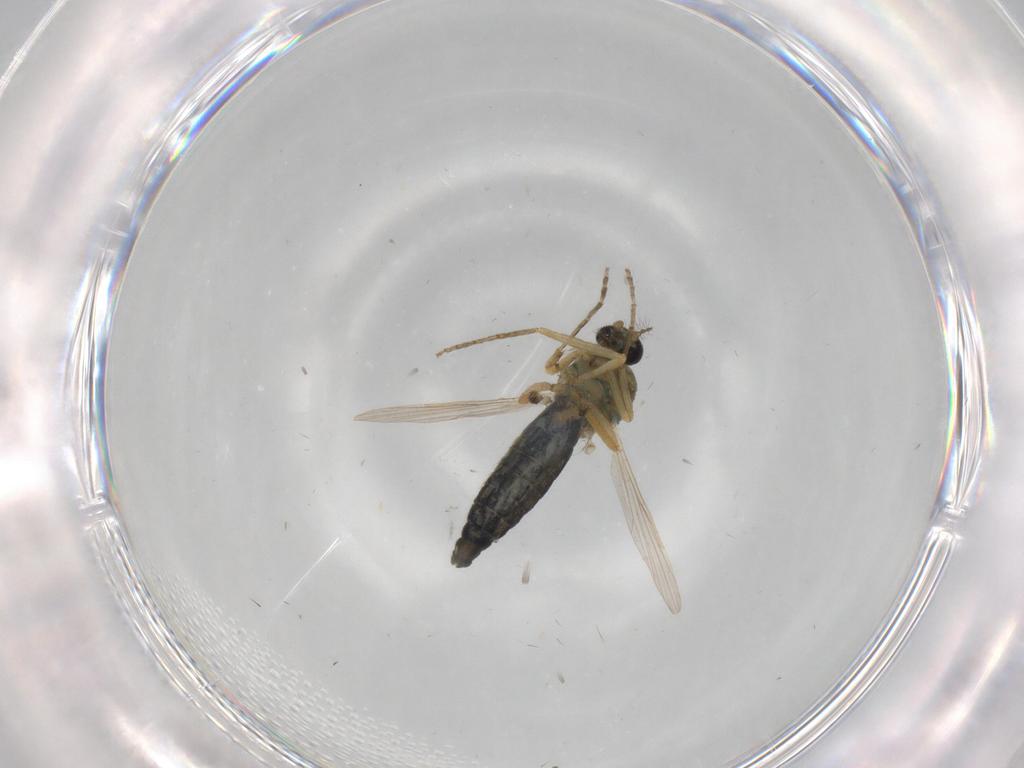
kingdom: Animalia
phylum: Arthropoda
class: Insecta
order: Diptera
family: Ceratopogonidae
